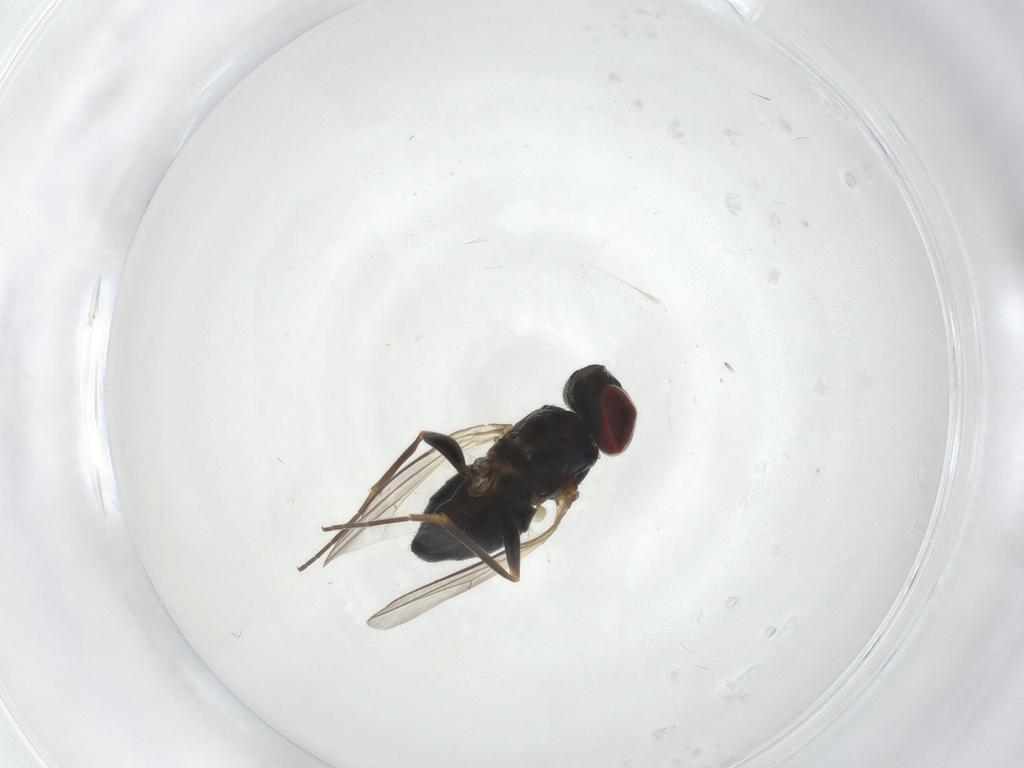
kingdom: Animalia
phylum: Arthropoda
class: Insecta
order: Diptera
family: Dolichopodidae
